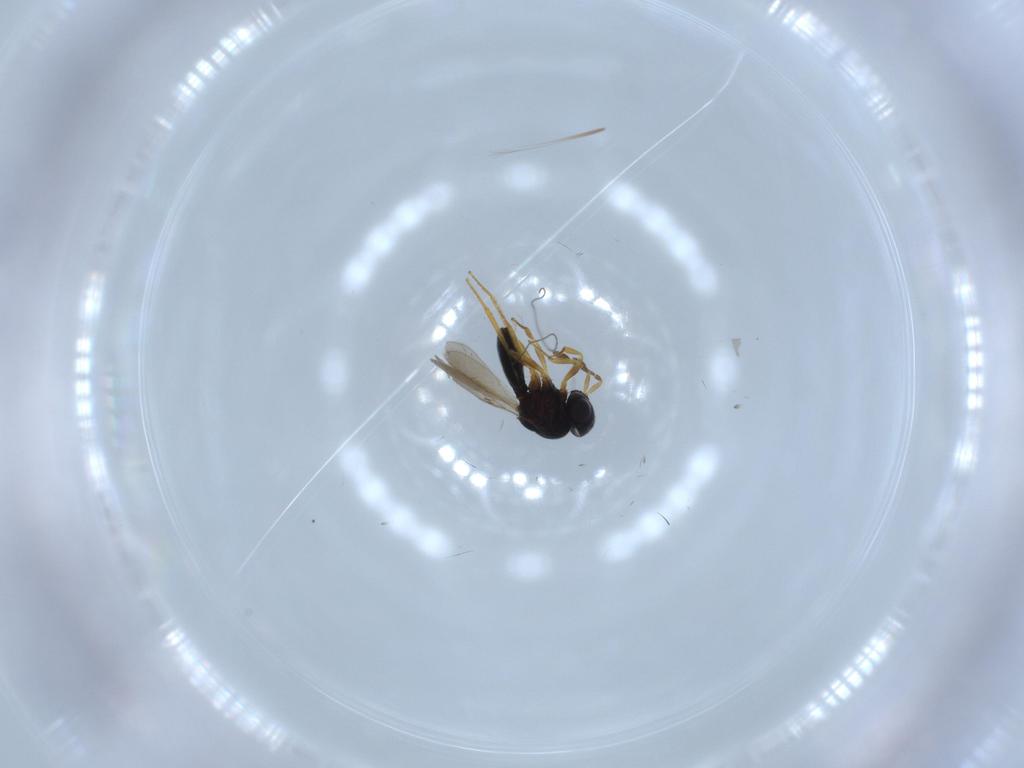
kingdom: Animalia
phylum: Arthropoda
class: Insecta
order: Hymenoptera
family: Scelionidae
